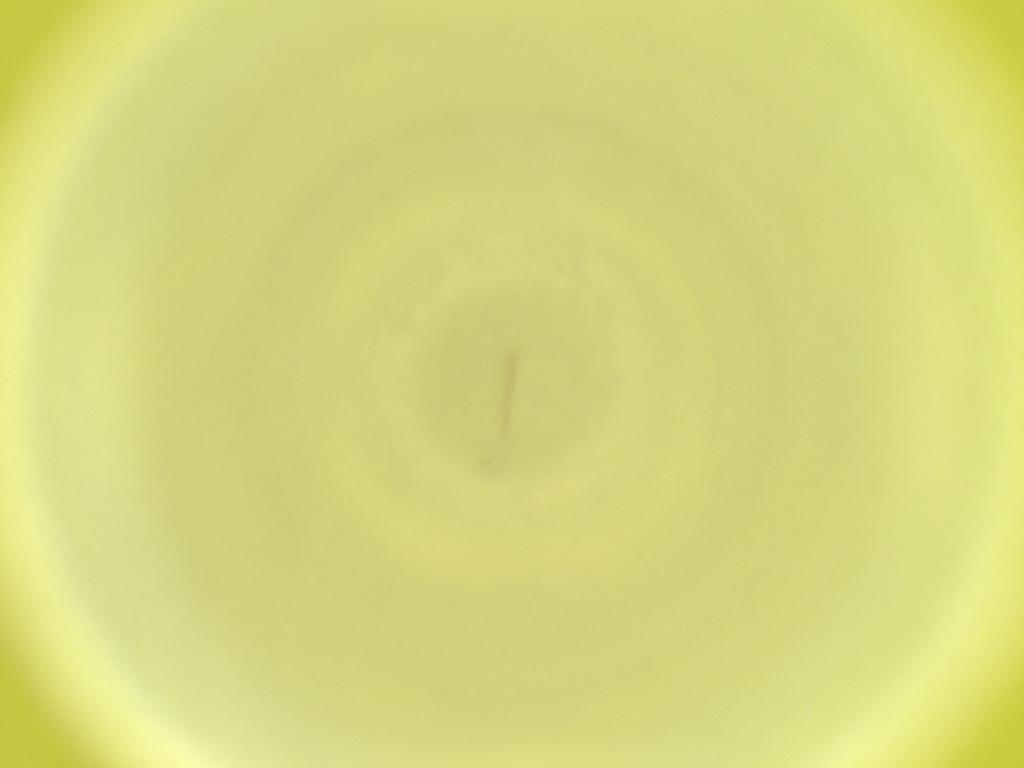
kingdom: Animalia
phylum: Arthropoda
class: Insecta
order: Diptera
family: Cecidomyiidae
